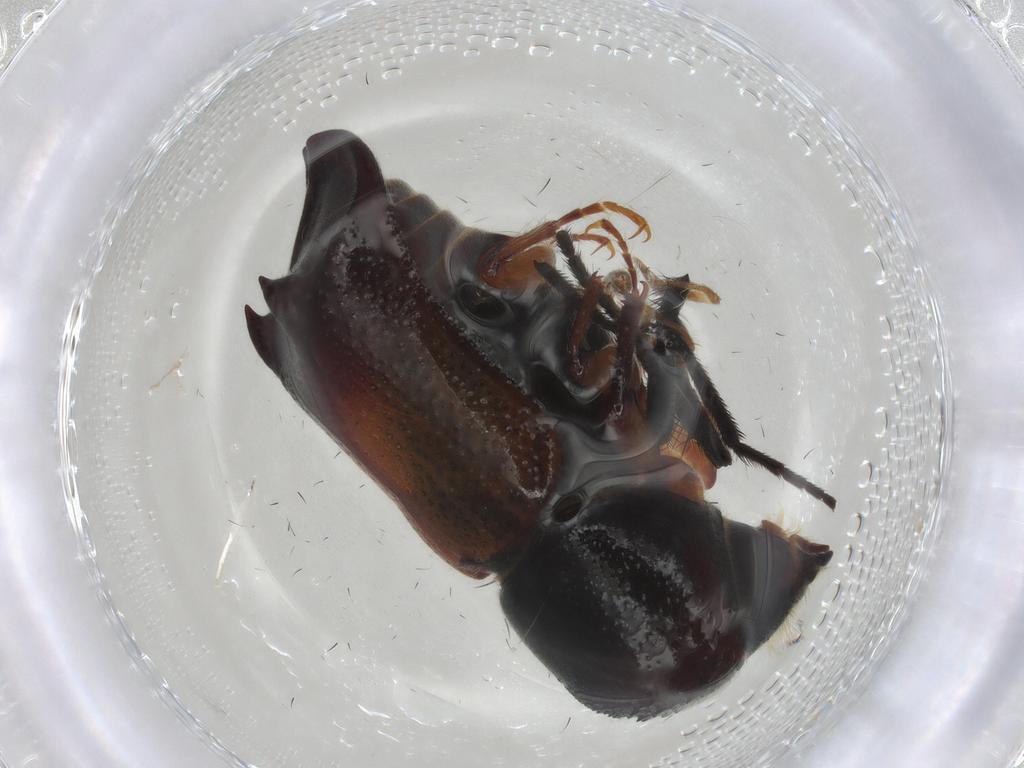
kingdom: Animalia
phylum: Arthropoda
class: Insecta
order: Coleoptera
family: Bostrichidae
